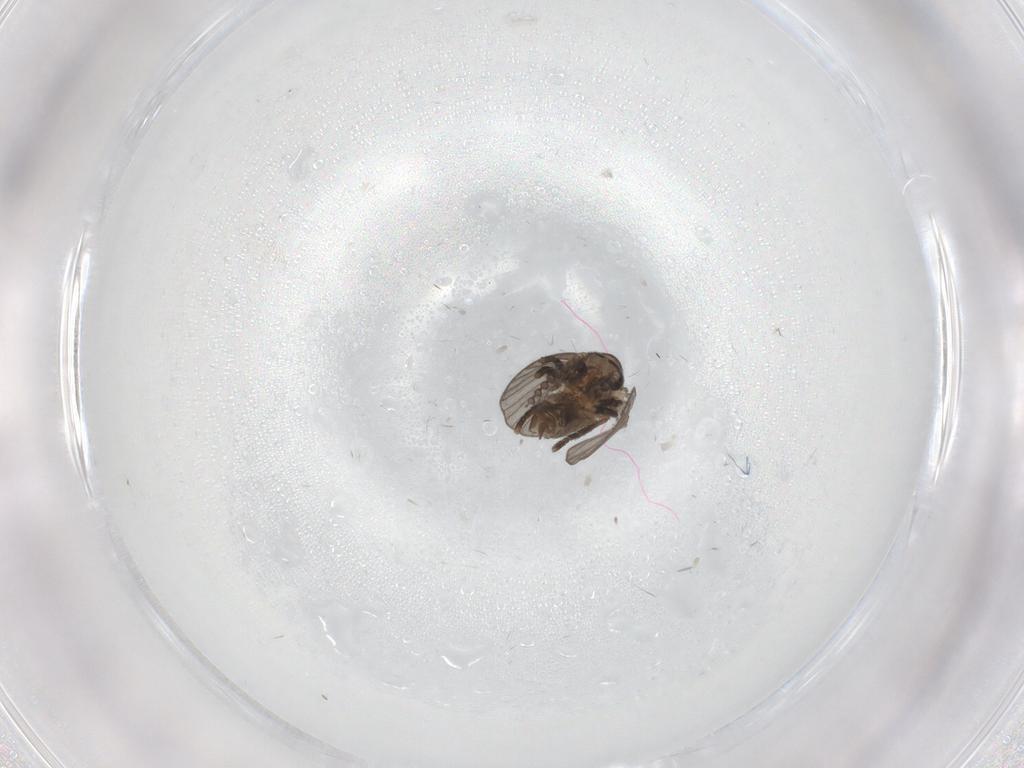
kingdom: Animalia
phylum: Arthropoda
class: Insecta
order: Diptera
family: Psychodidae
